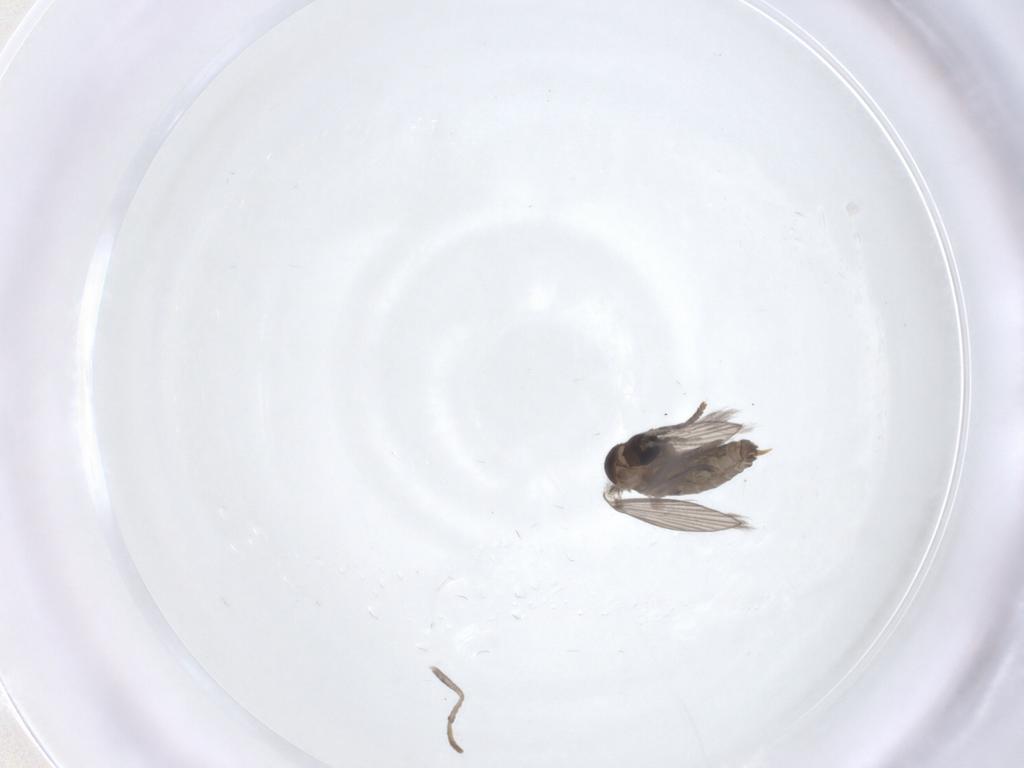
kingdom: Animalia
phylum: Arthropoda
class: Insecta
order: Diptera
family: Psychodidae
